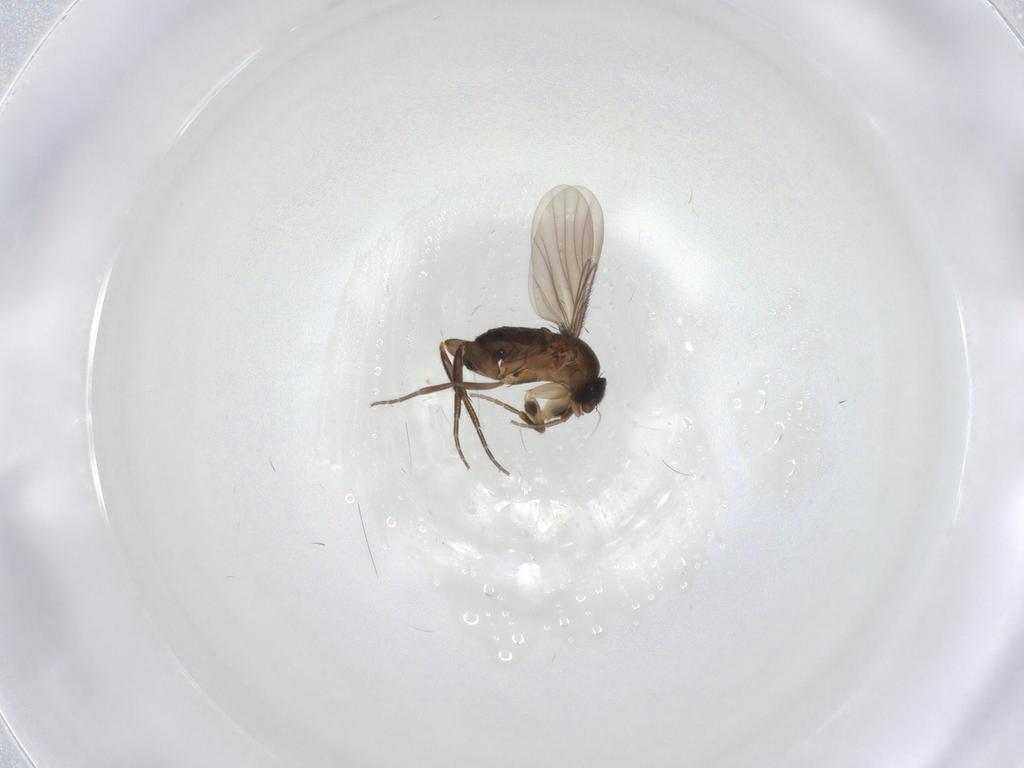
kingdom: Animalia
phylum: Arthropoda
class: Insecta
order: Diptera
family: Phoridae
